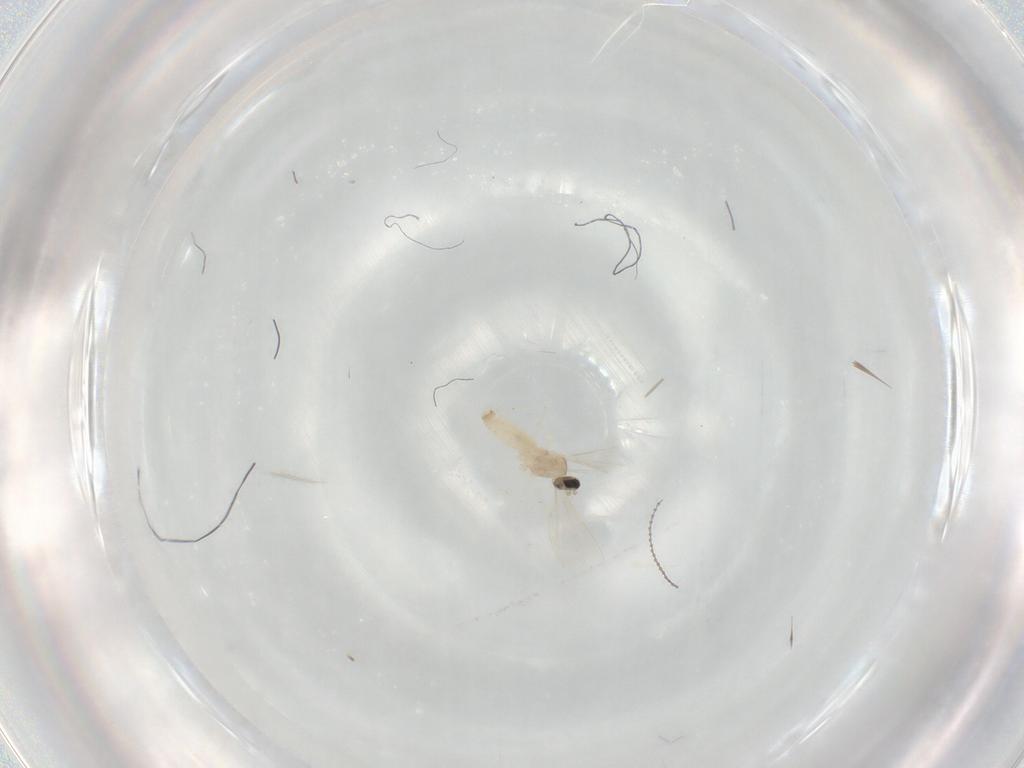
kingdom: Animalia
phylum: Arthropoda
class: Insecta
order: Diptera
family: Cecidomyiidae
